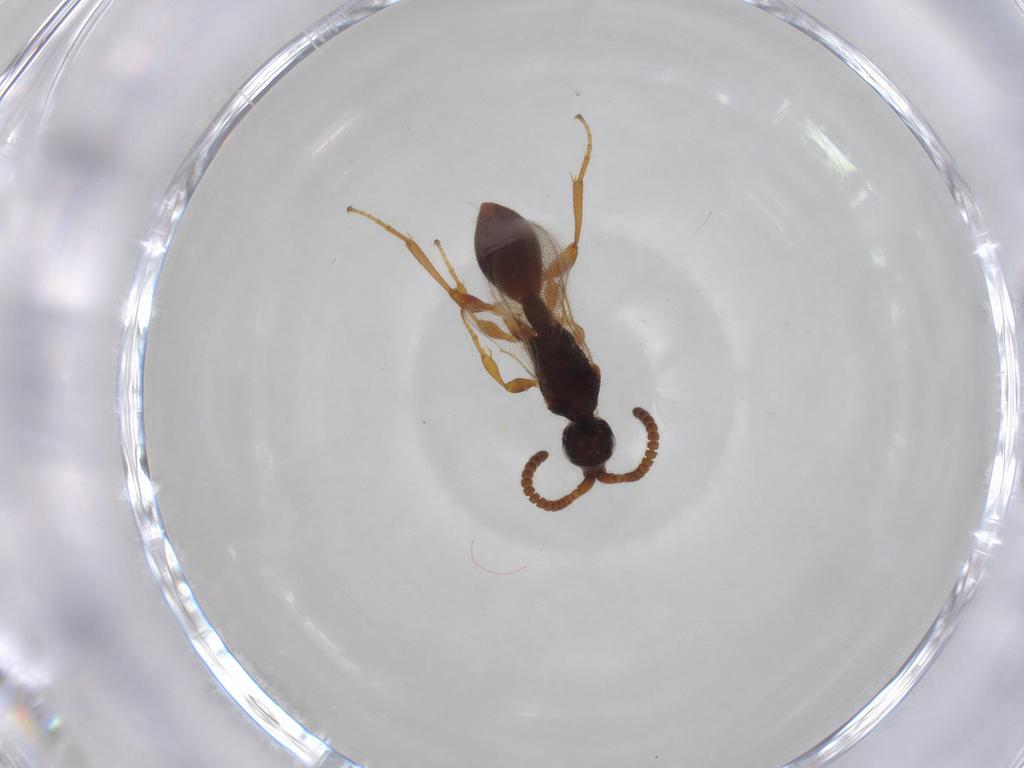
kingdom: Animalia
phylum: Arthropoda
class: Insecta
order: Hymenoptera
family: Diapriidae
